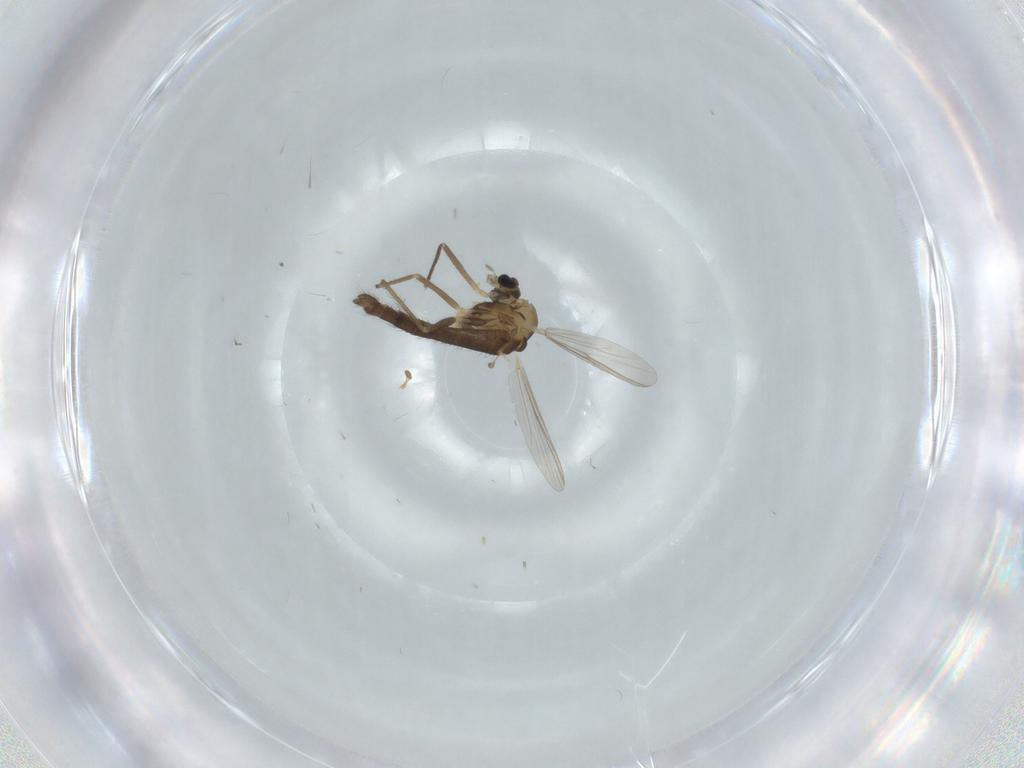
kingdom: Animalia
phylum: Arthropoda
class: Insecta
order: Diptera
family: Chironomidae
